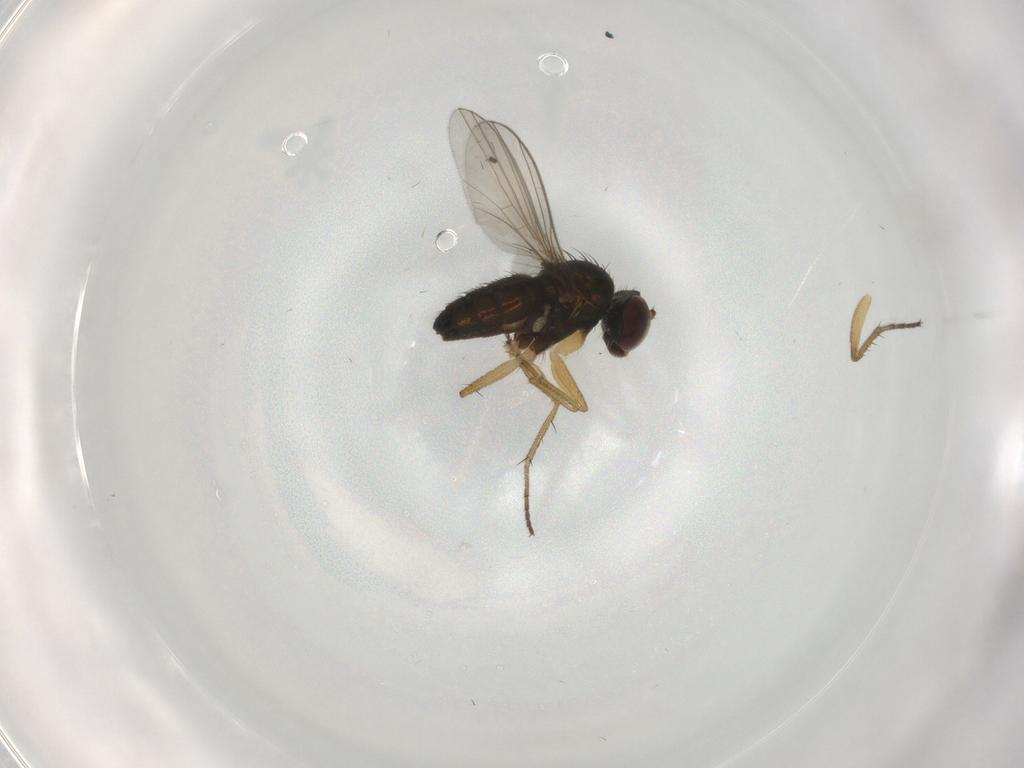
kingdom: Animalia
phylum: Arthropoda
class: Insecta
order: Diptera
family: Dolichopodidae
